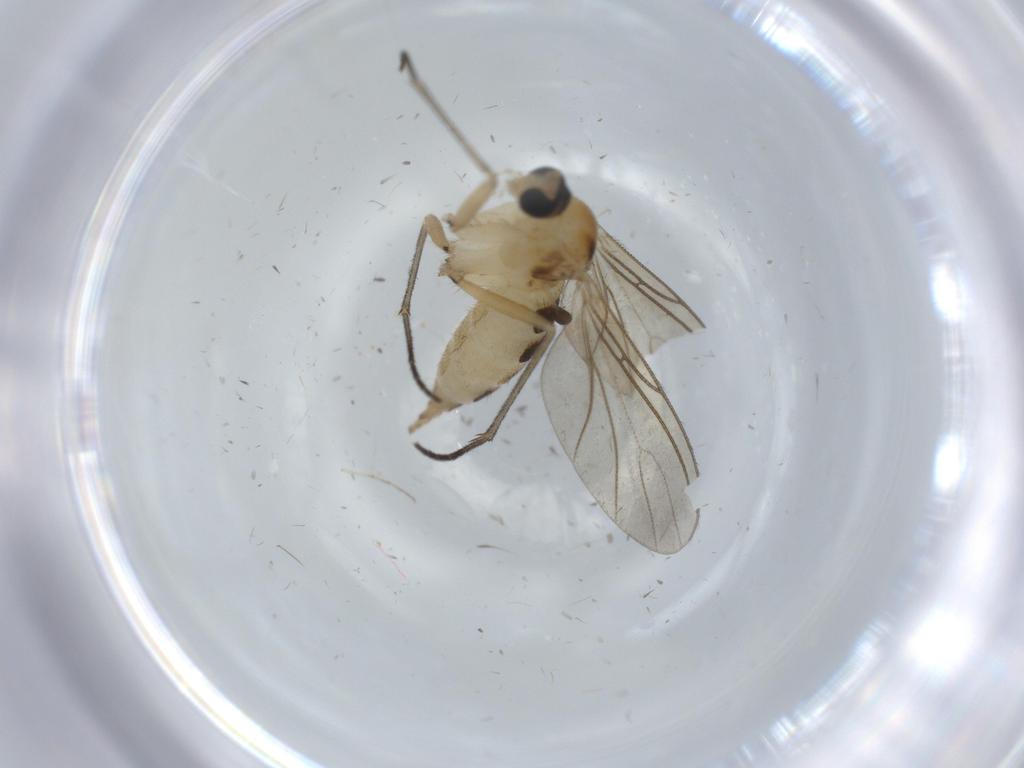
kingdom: Animalia
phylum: Arthropoda
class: Insecta
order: Diptera
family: Sciaridae
